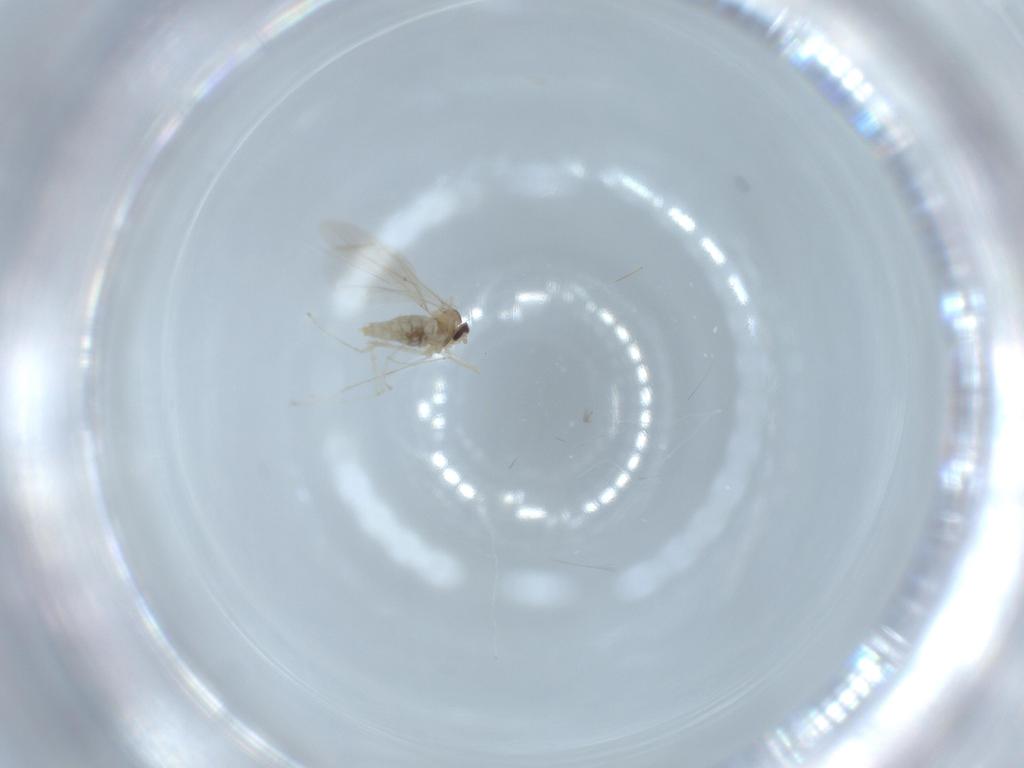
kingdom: Animalia
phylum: Arthropoda
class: Insecta
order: Diptera
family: Cecidomyiidae
